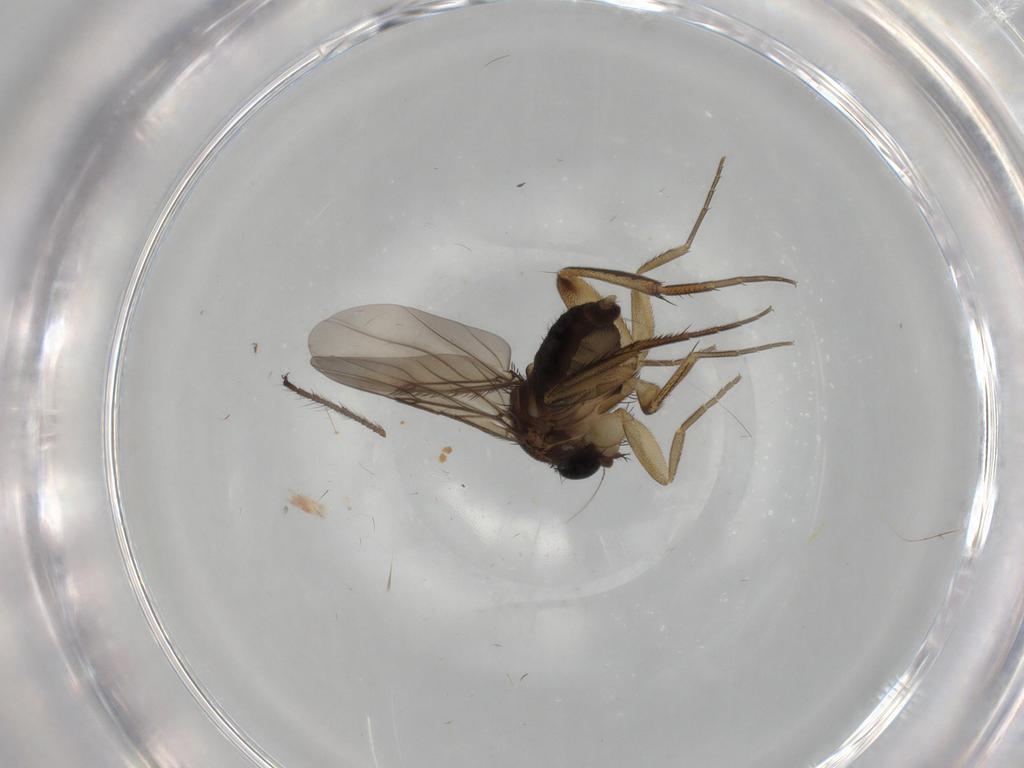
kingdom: Animalia
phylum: Arthropoda
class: Insecta
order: Diptera
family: Phoridae
